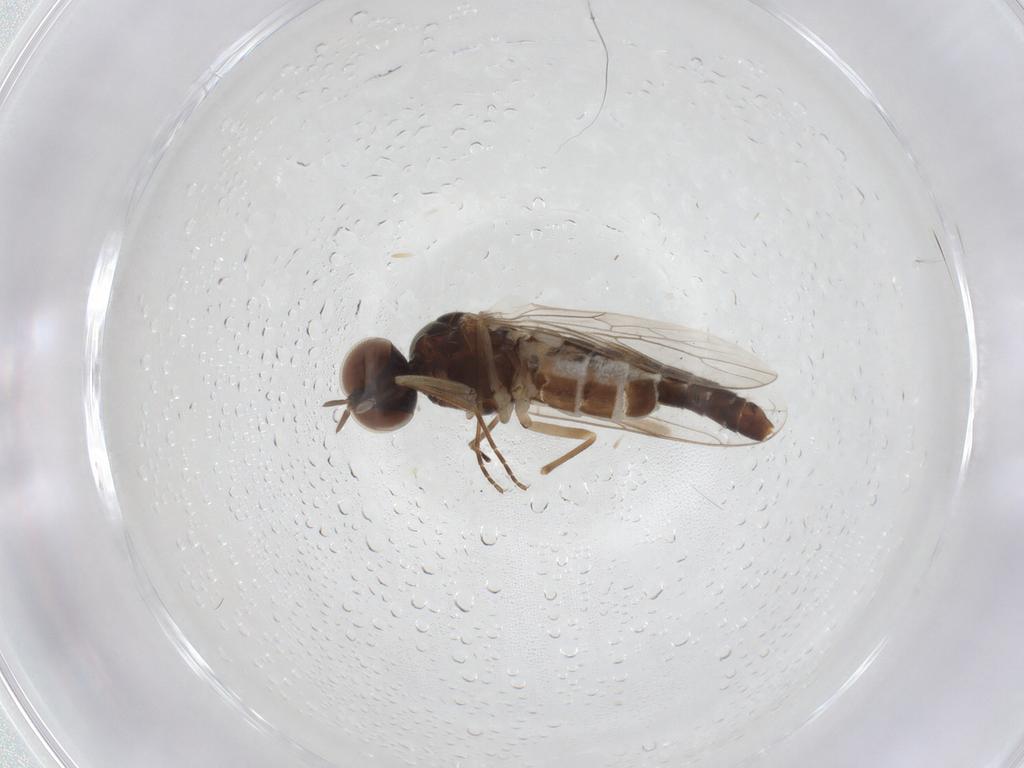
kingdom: Animalia
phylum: Arthropoda
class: Insecta
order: Diptera
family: Scenopinidae
